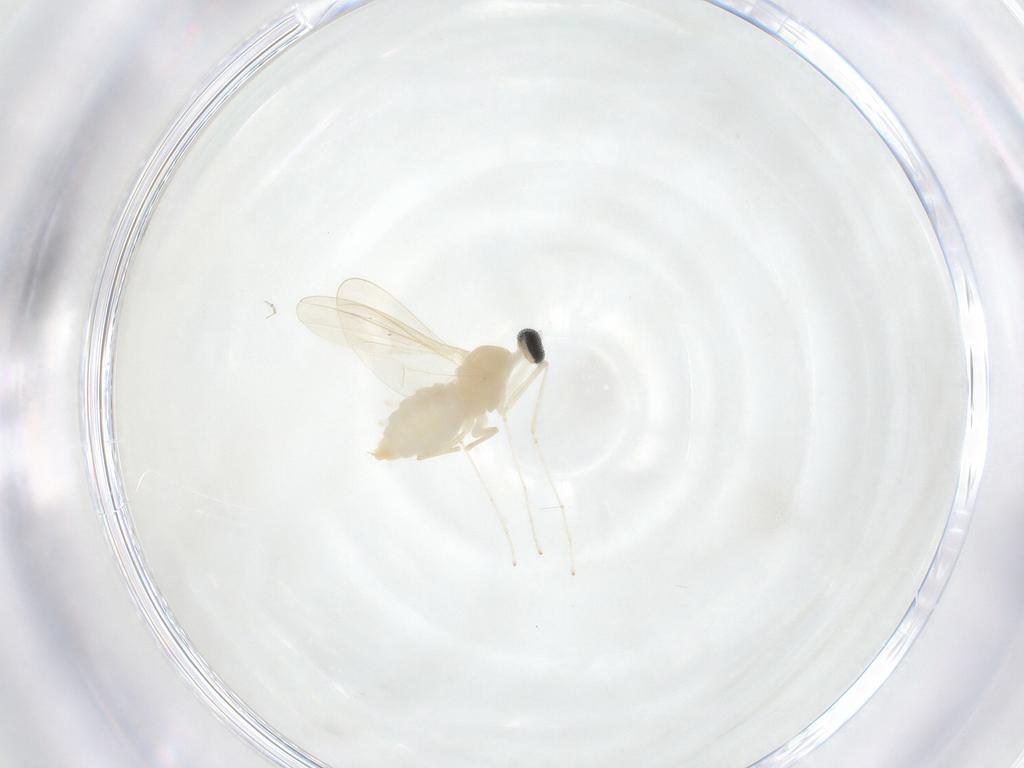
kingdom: Animalia
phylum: Arthropoda
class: Insecta
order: Diptera
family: Cecidomyiidae
